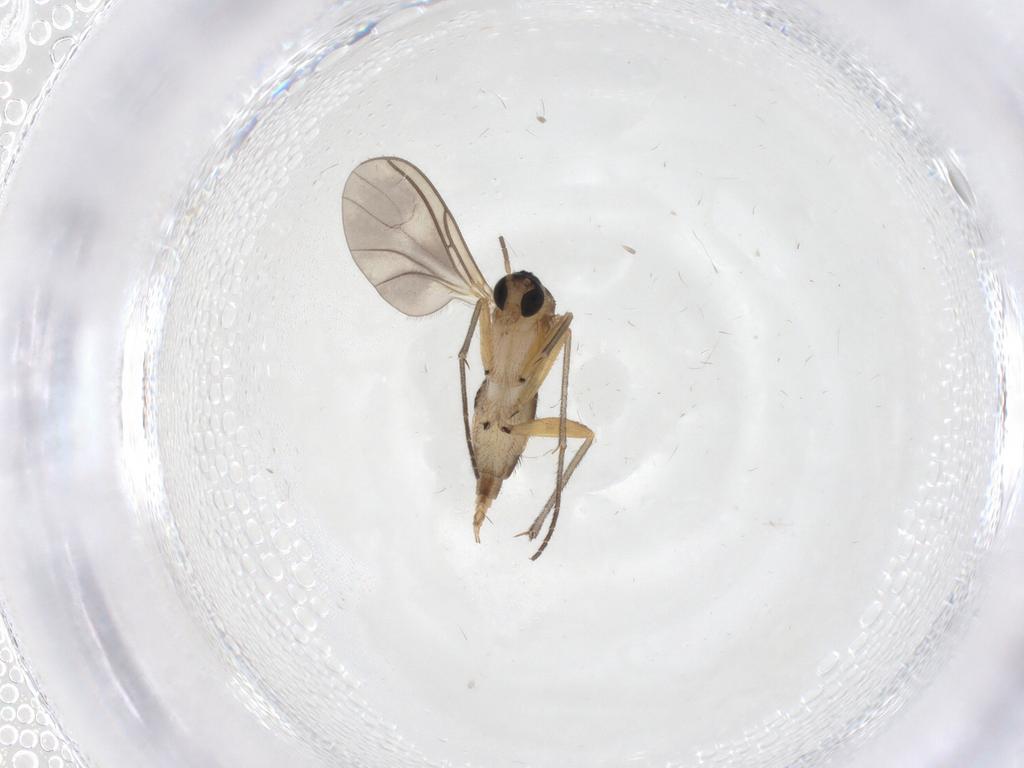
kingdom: Animalia
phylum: Arthropoda
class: Insecta
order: Diptera
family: Sciaridae
